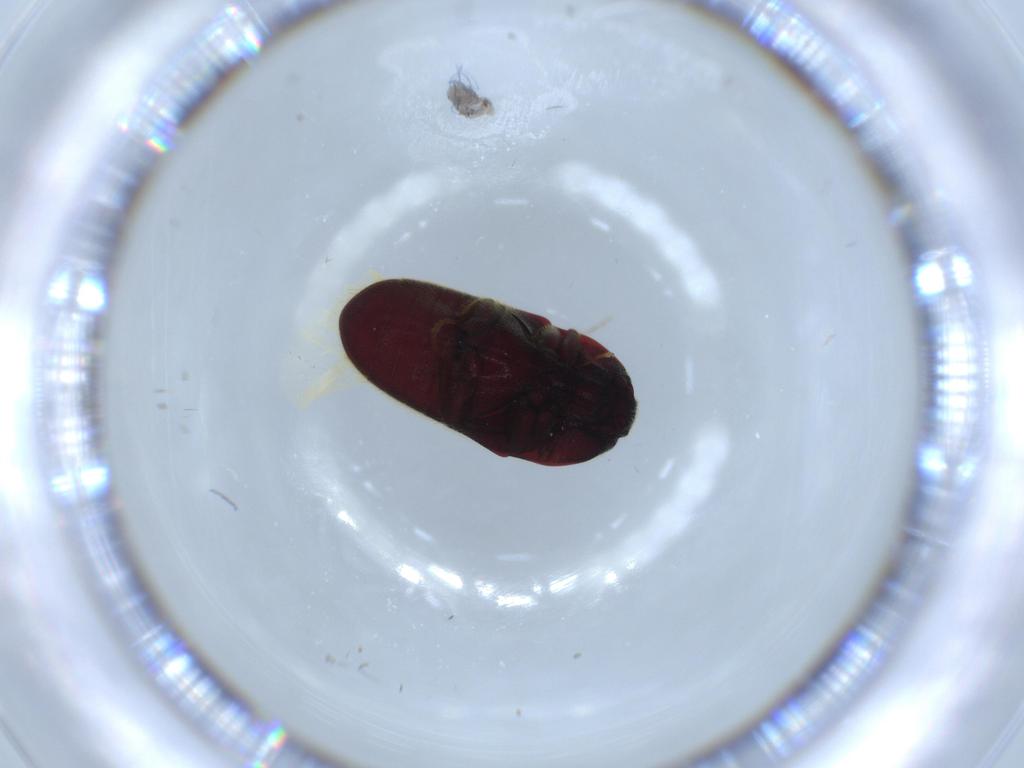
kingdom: Animalia
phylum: Arthropoda
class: Insecta
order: Coleoptera
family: Throscidae
